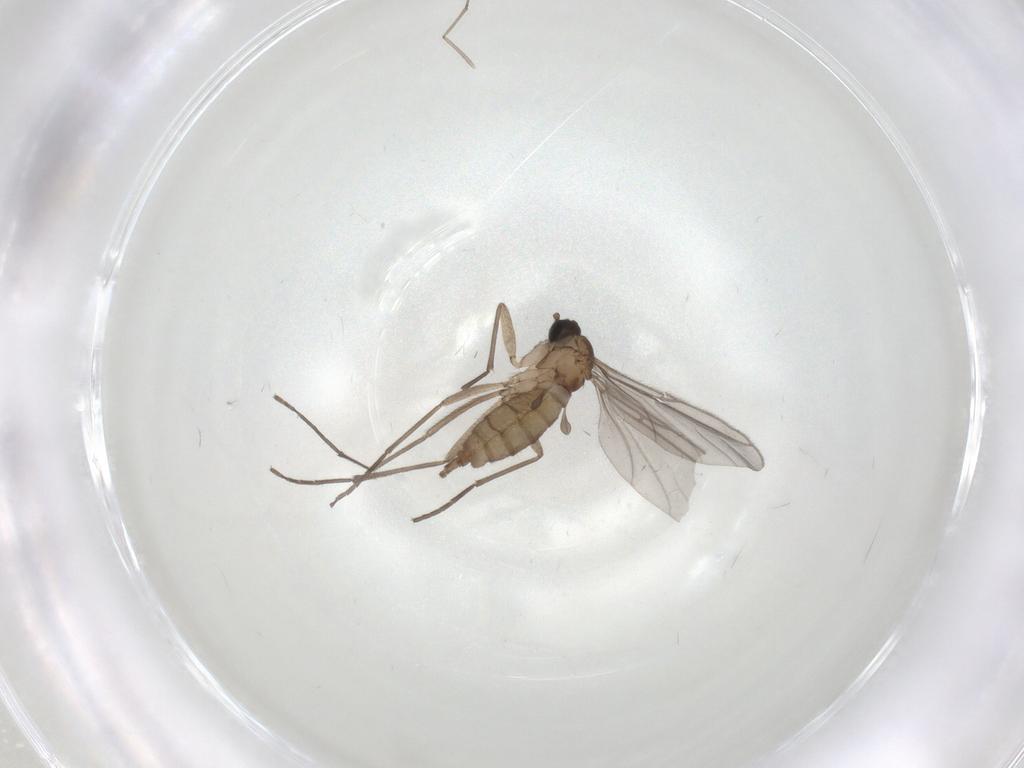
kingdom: Animalia
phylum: Arthropoda
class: Insecta
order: Diptera
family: Sciaridae
